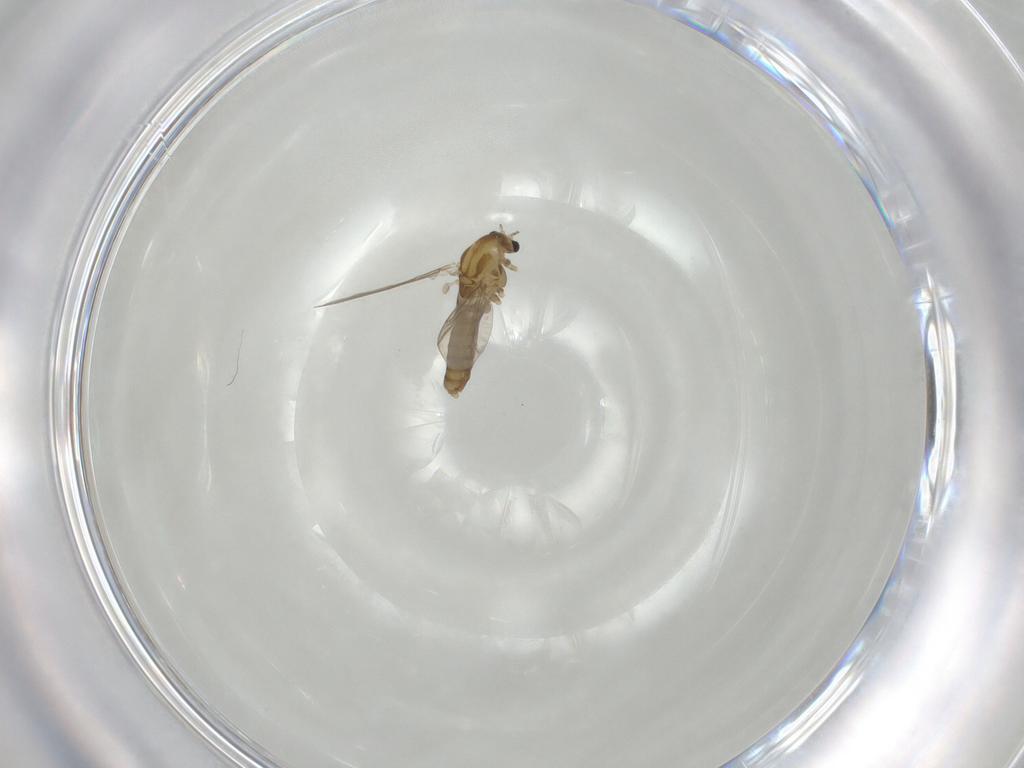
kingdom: Animalia
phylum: Arthropoda
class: Insecta
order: Diptera
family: Chironomidae
